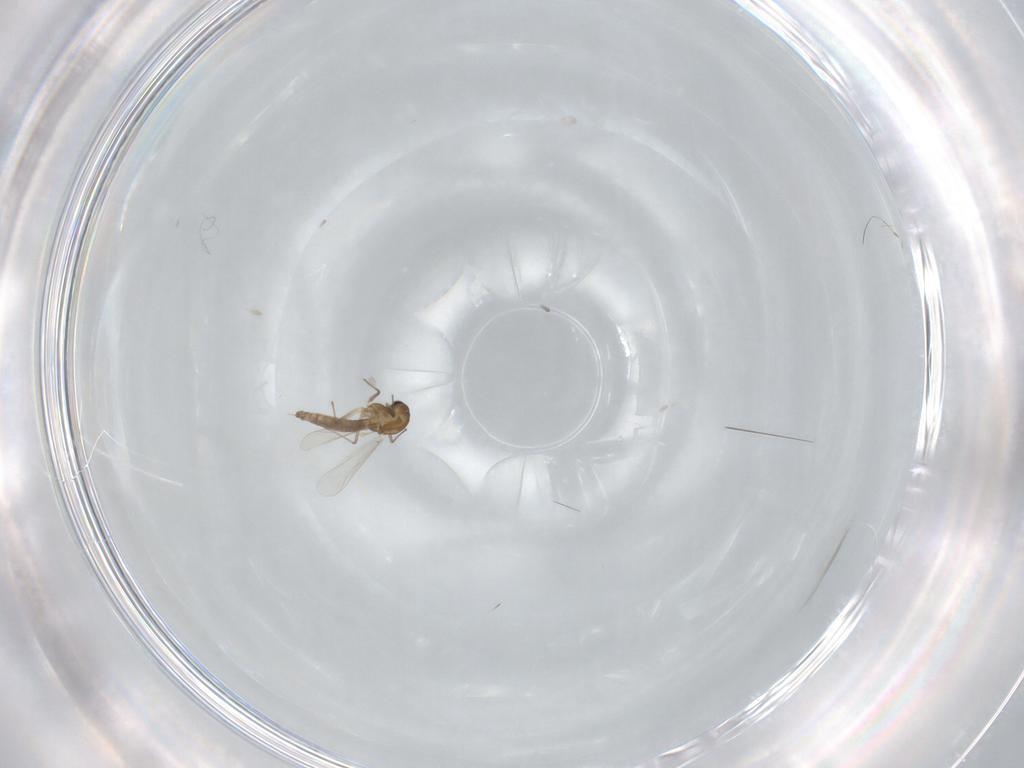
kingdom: Animalia
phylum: Arthropoda
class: Insecta
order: Diptera
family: Chironomidae
